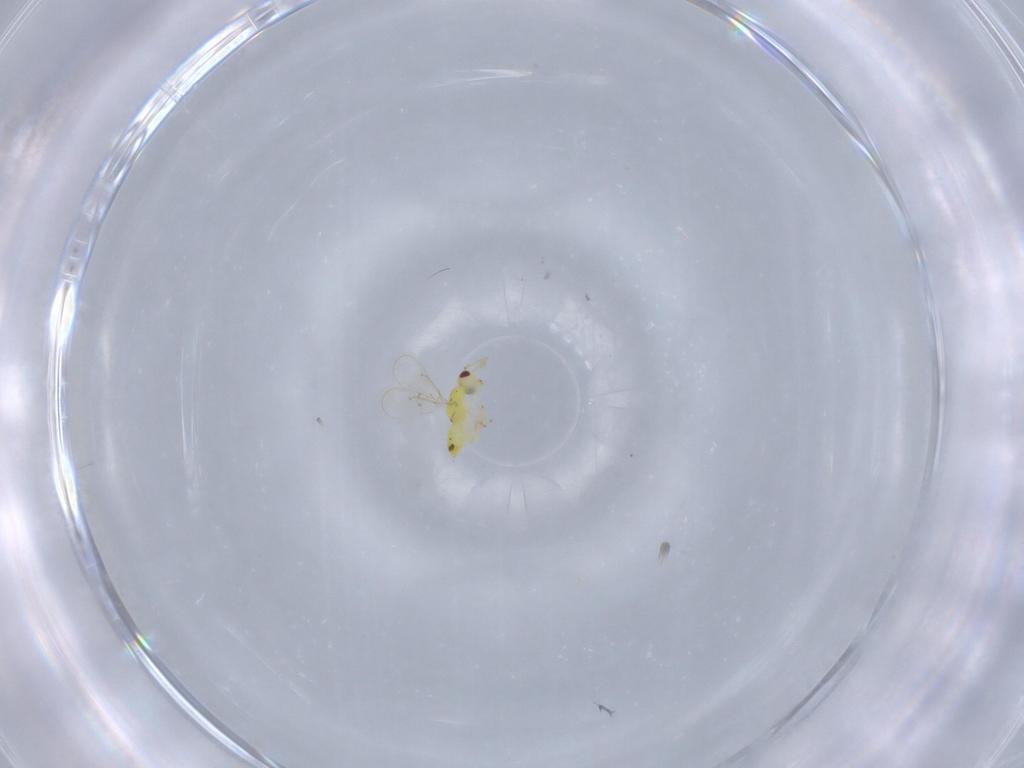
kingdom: Animalia
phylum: Arthropoda
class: Insecta
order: Hymenoptera
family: Eulophidae
